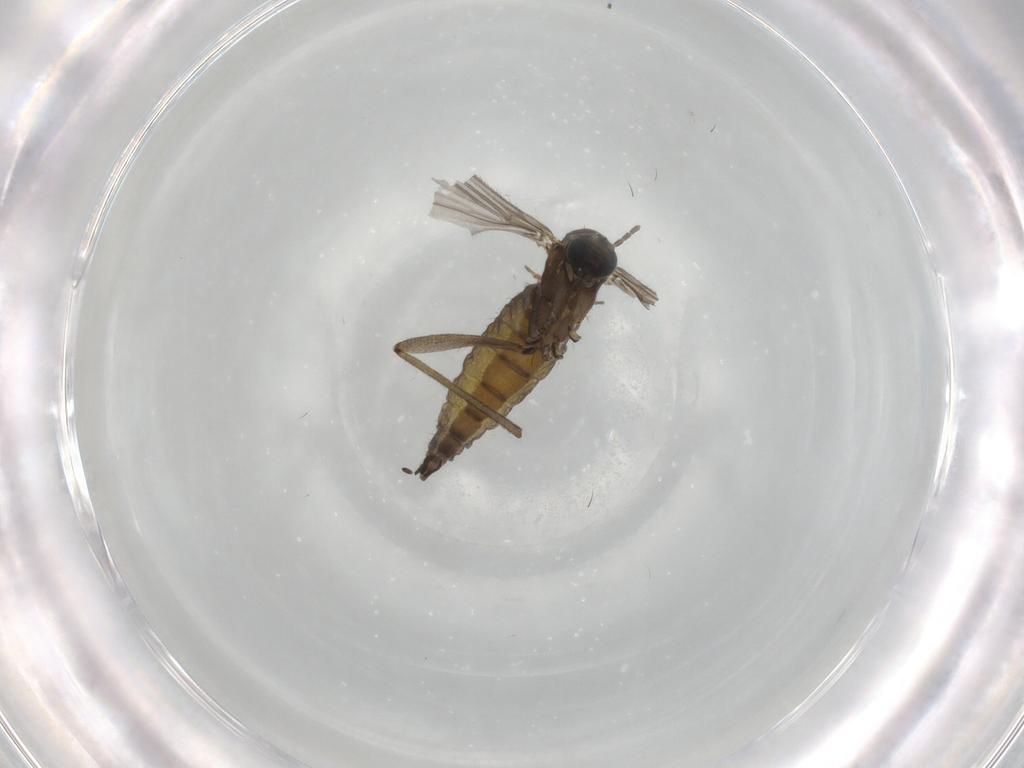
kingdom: Animalia
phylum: Arthropoda
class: Insecta
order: Diptera
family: Sciaridae
